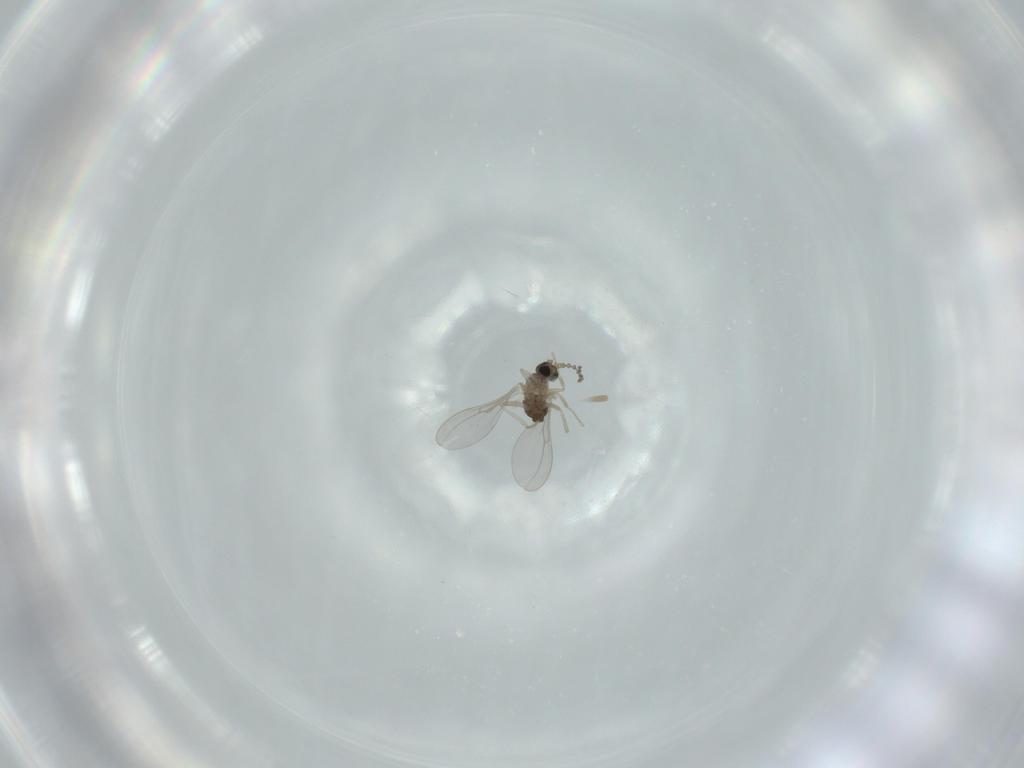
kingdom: Animalia
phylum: Arthropoda
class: Insecta
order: Diptera
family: Cecidomyiidae
